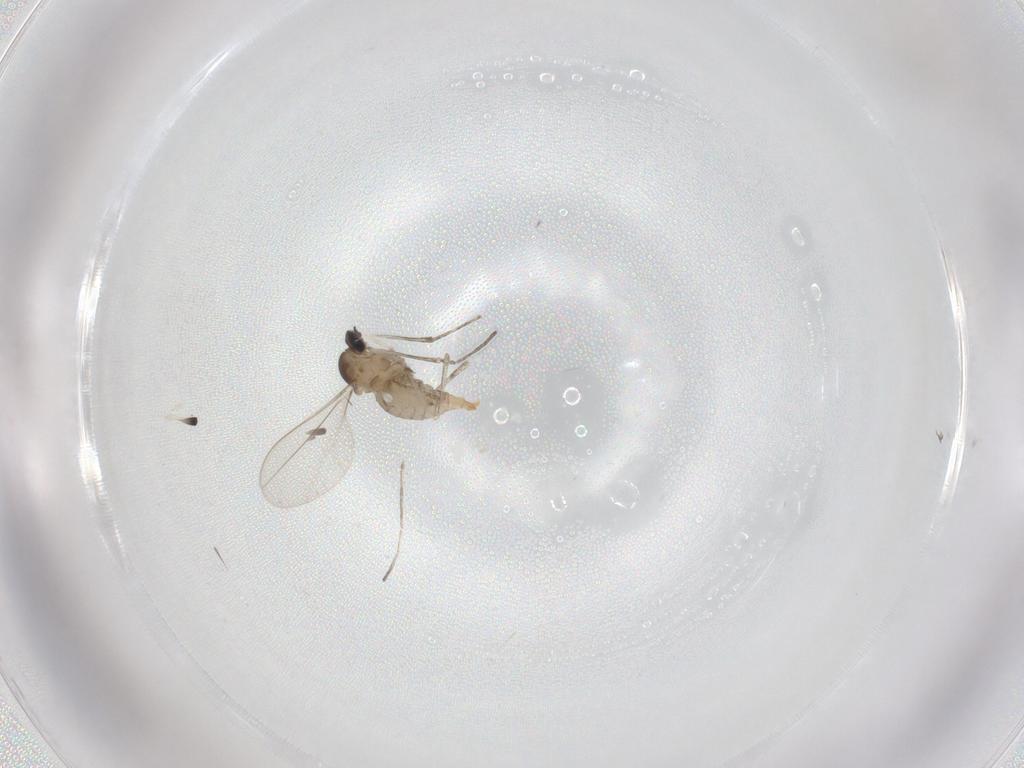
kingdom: Animalia
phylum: Arthropoda
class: Insecta
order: Diptera
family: Cecidomyiidae
